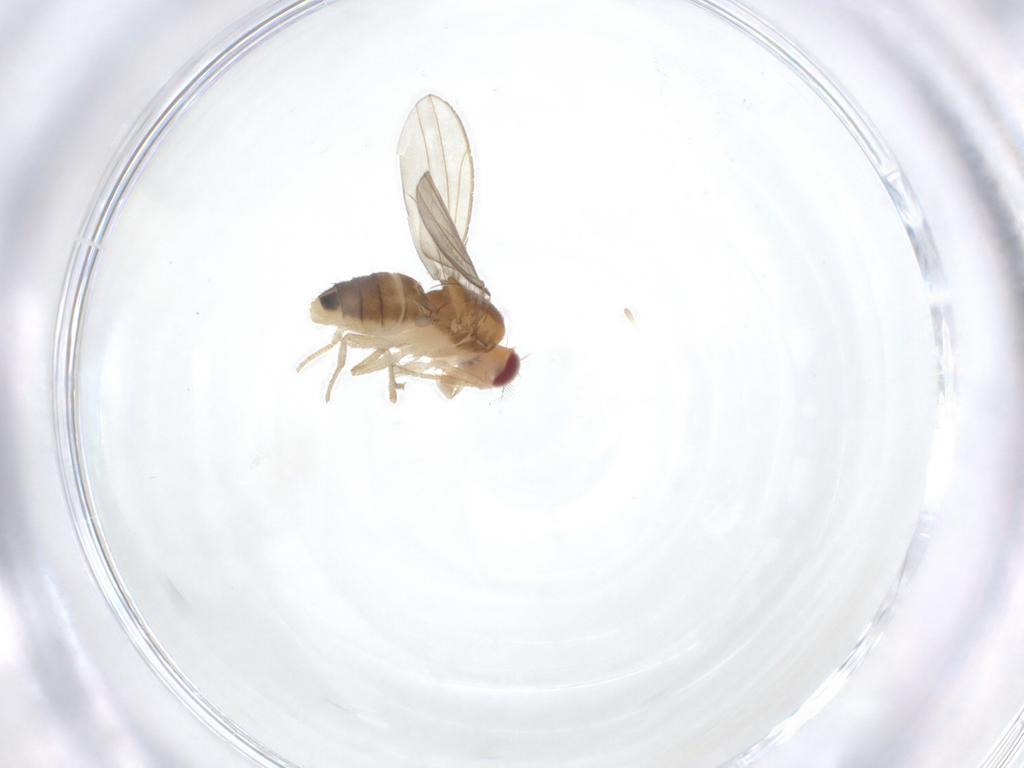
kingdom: Animalia
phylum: Arthropoda
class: Insecta
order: Diptera
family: Drosophilidae
